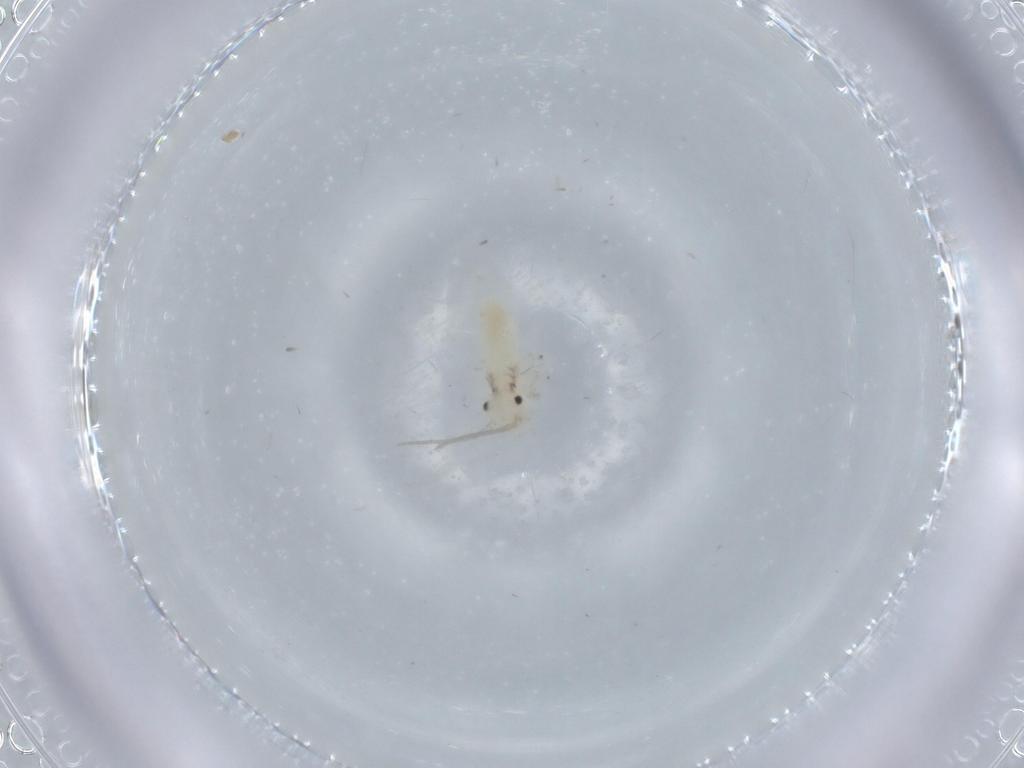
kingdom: Animalia
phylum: Arthropoda
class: Insecta
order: Psocodea
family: Caeciliusidae
